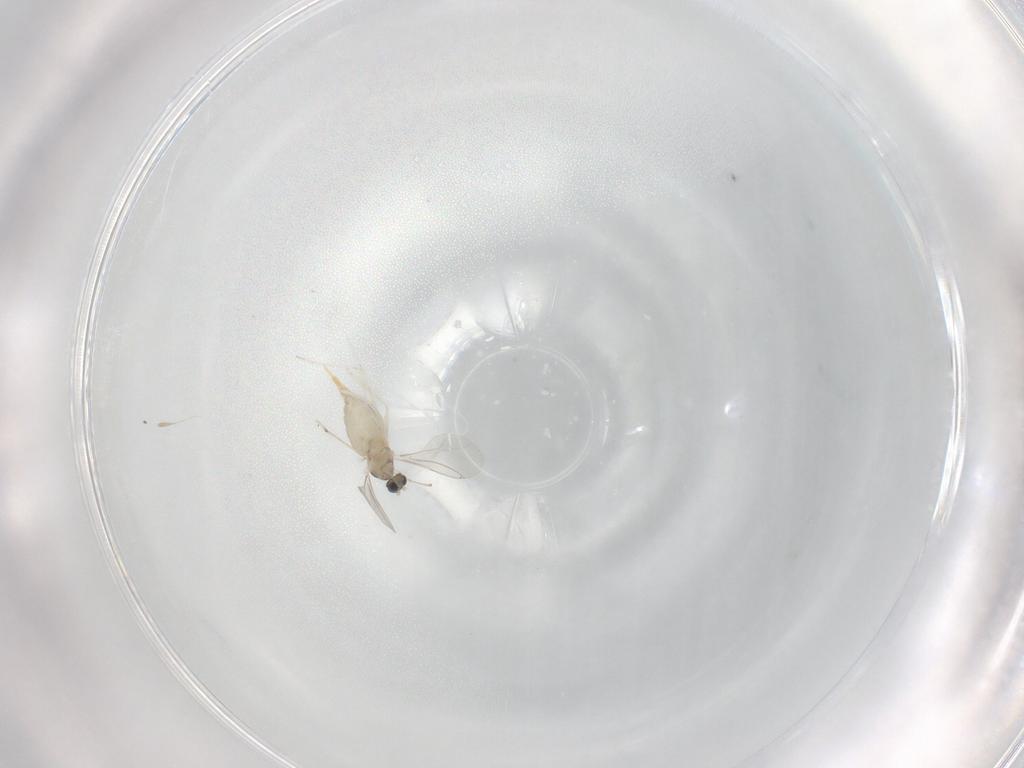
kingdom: Animalia
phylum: Arthropoda
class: Insecta
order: Diptera
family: Cecidomyiidae
